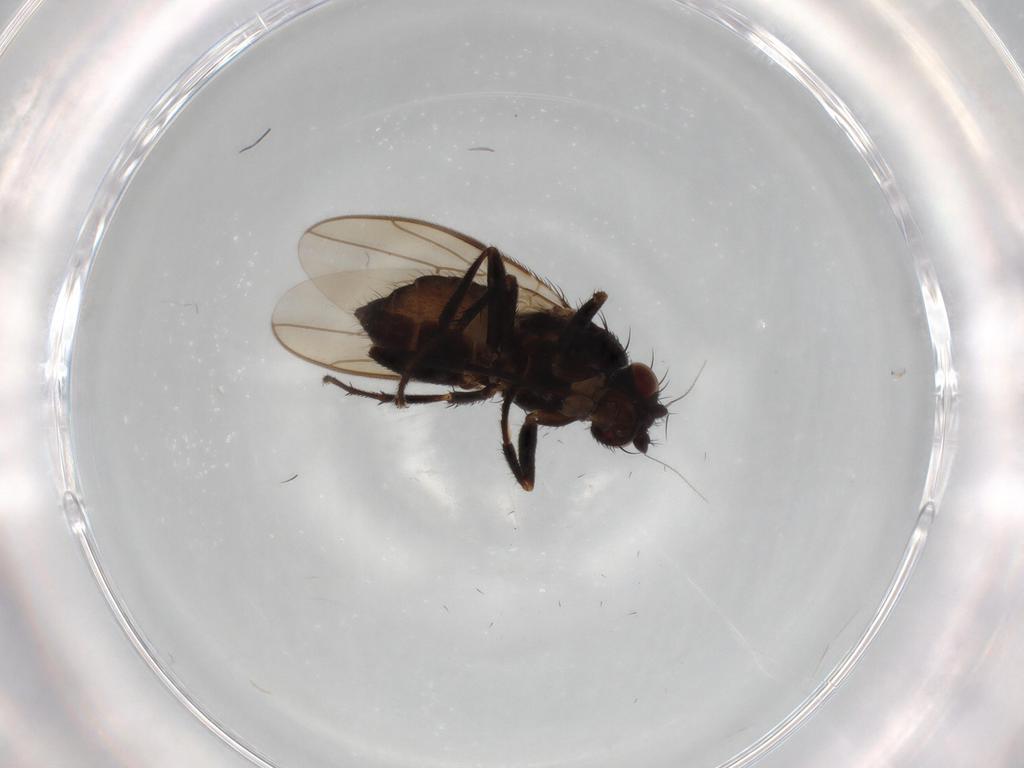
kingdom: Animalia
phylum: Arthropoda
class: Insecta
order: Diptera
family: Sphaeroceridae
